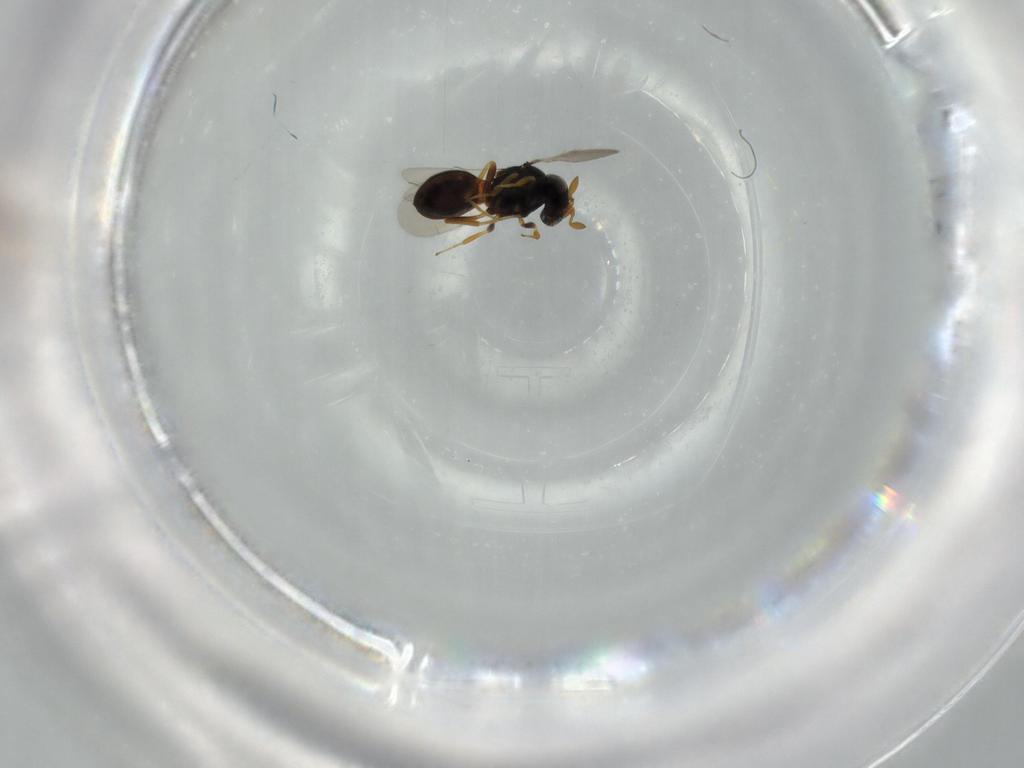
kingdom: Animalia
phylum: Arthropoda
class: Insecta
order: Hymenoptera
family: Scelionidae
